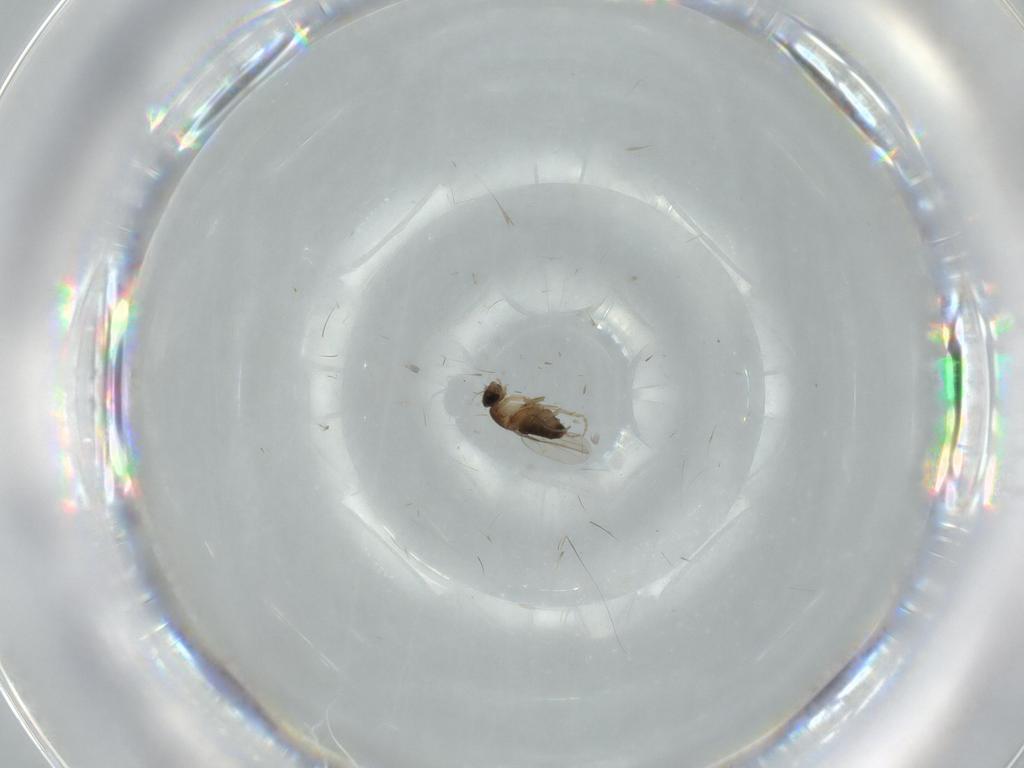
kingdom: Animalia
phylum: Arthropoda
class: Insecta
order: Diptera
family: Phoridae
